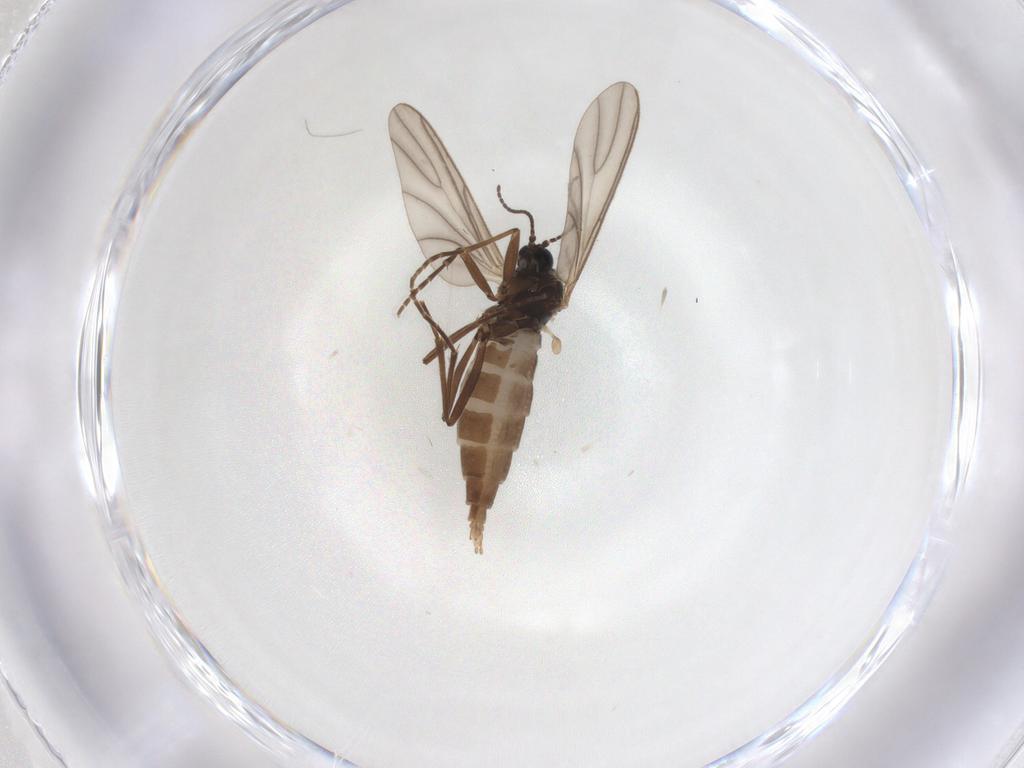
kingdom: Animalia
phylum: Arthropoda
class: Insecta
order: Diptera
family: Sciaridae
